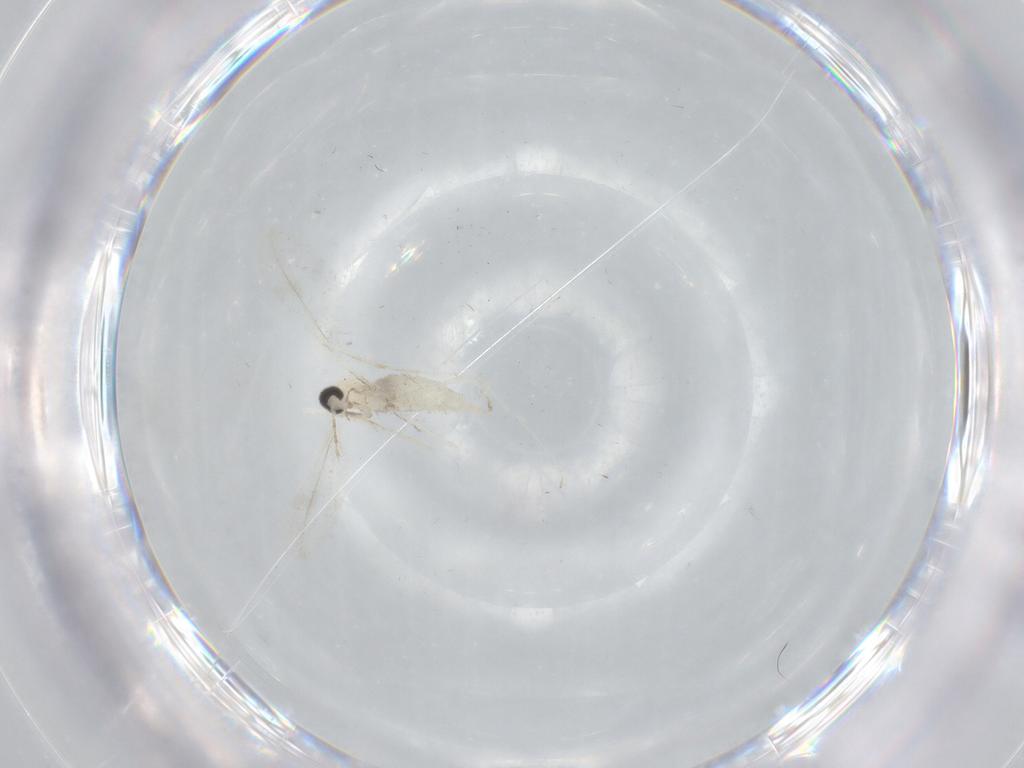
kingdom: Animalia
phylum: Arthropoda
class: Insecta
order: Diptera
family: Cecidomyiidae
